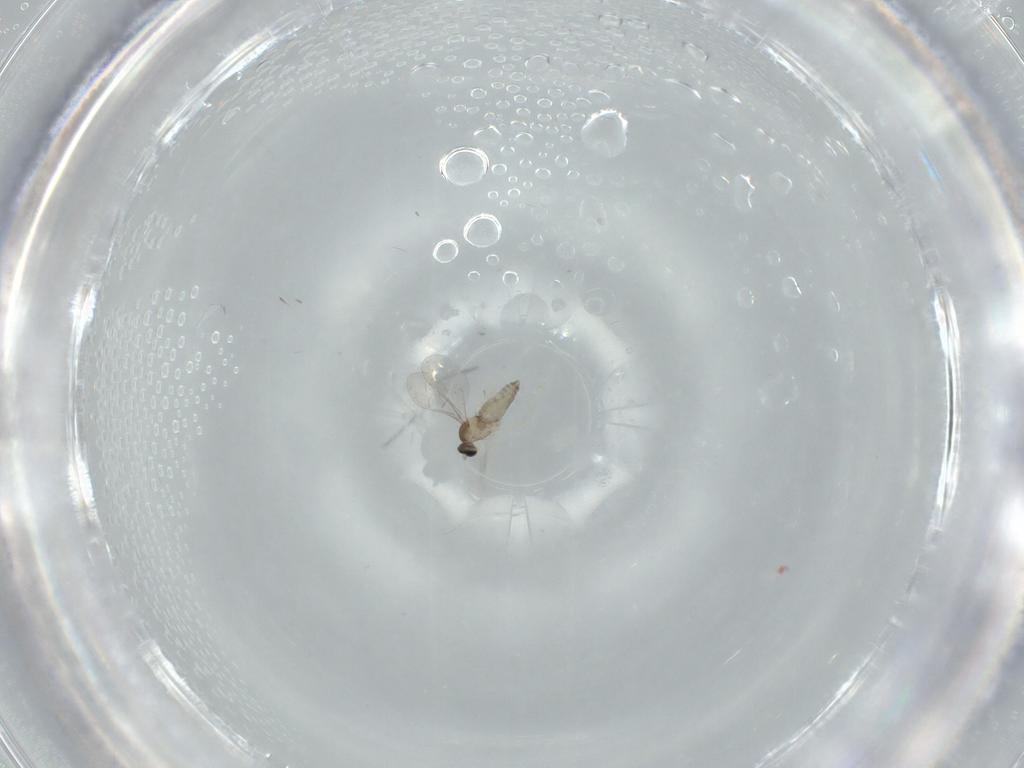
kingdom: Animalia
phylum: Arthropoda
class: Insecta
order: Diptera
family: Cecidomyiidae
